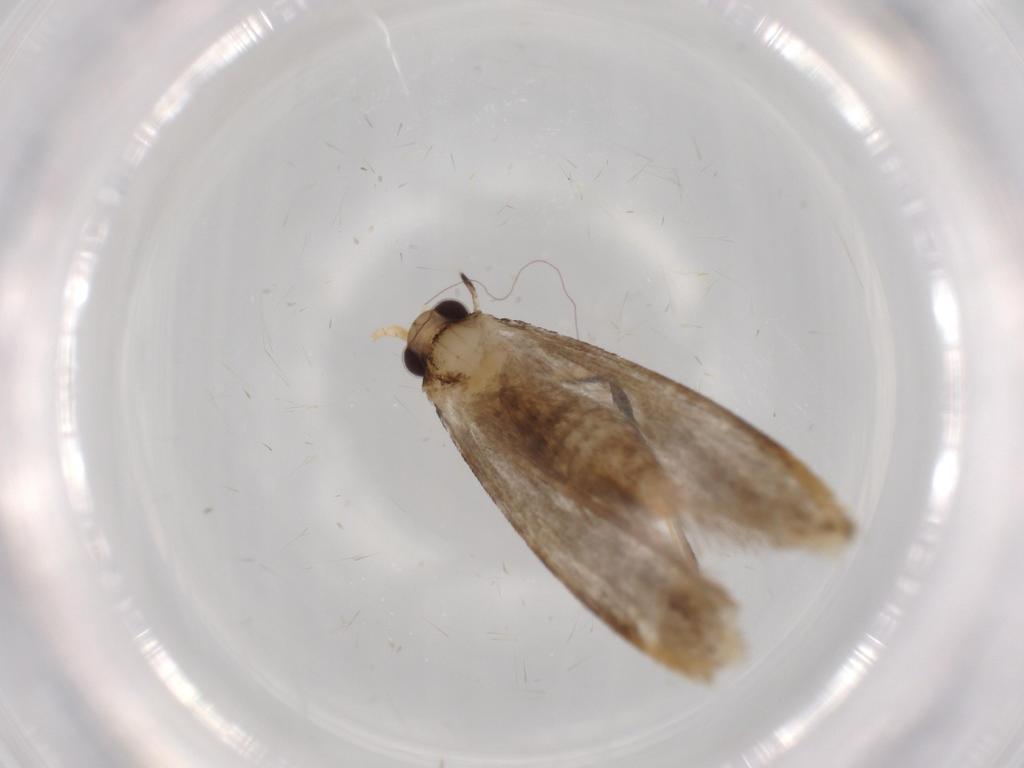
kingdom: Animalia
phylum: Arthropoda
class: Insecta
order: Lepidoptera
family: Tineidae
